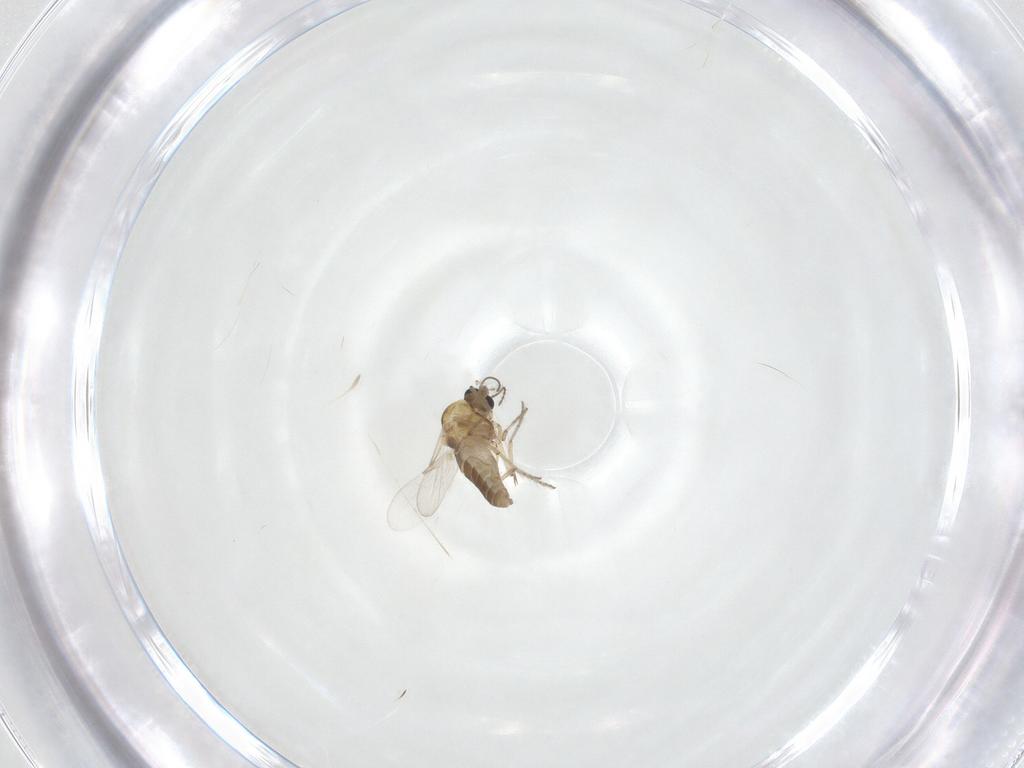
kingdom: Animalia
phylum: Arthropoda
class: Insecta
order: Diptera
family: Ceratopogonidae
